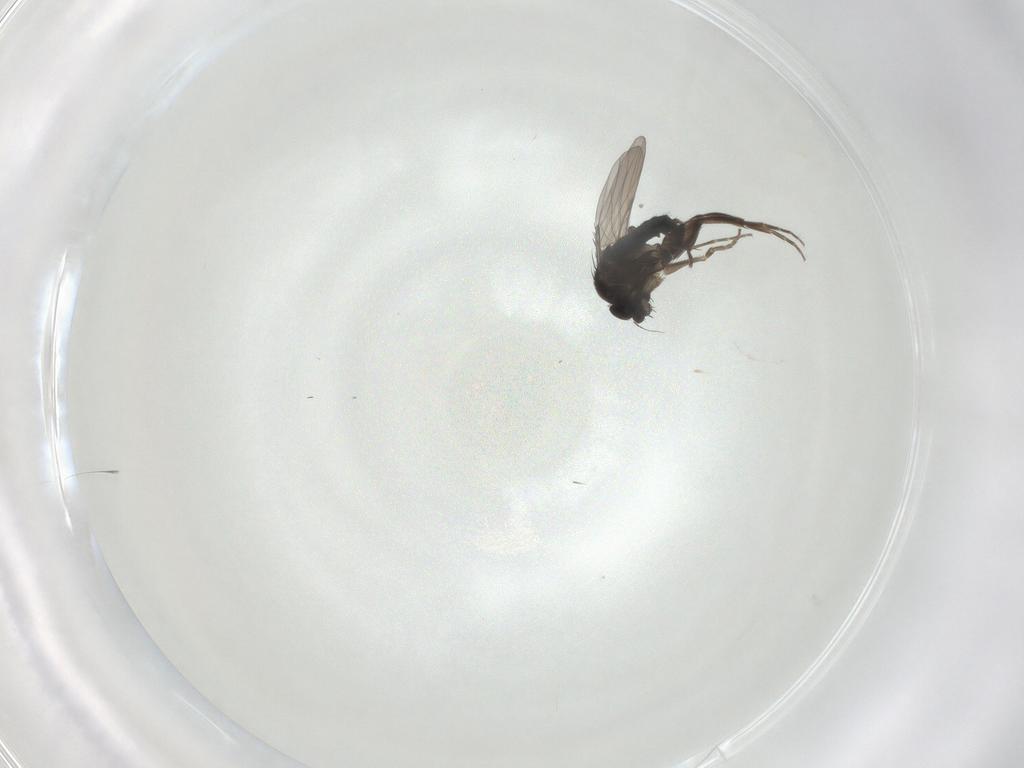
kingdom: Animalia
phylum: Arthropoda
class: Insecta
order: Diptera
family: Phoridae
